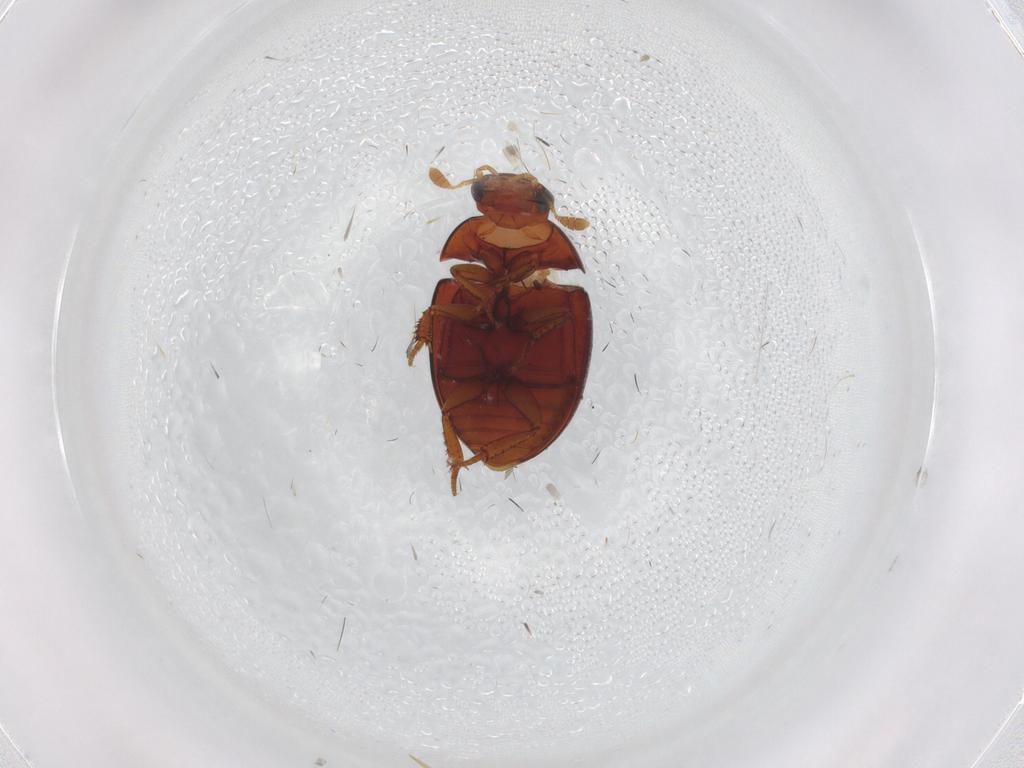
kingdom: Animalia
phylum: Arthropoda
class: Insecta
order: Coleoptera
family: Hydrophilidae
